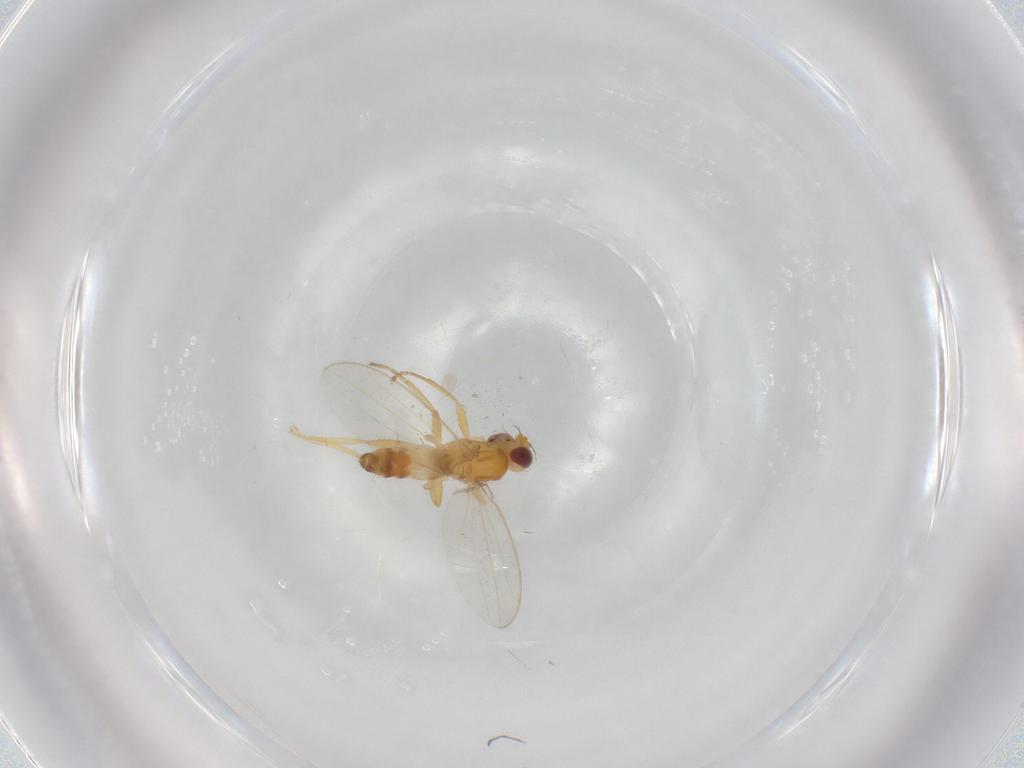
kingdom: Animalia
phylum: Arthropoda
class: Insecta
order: Diptera
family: Periscelididae
